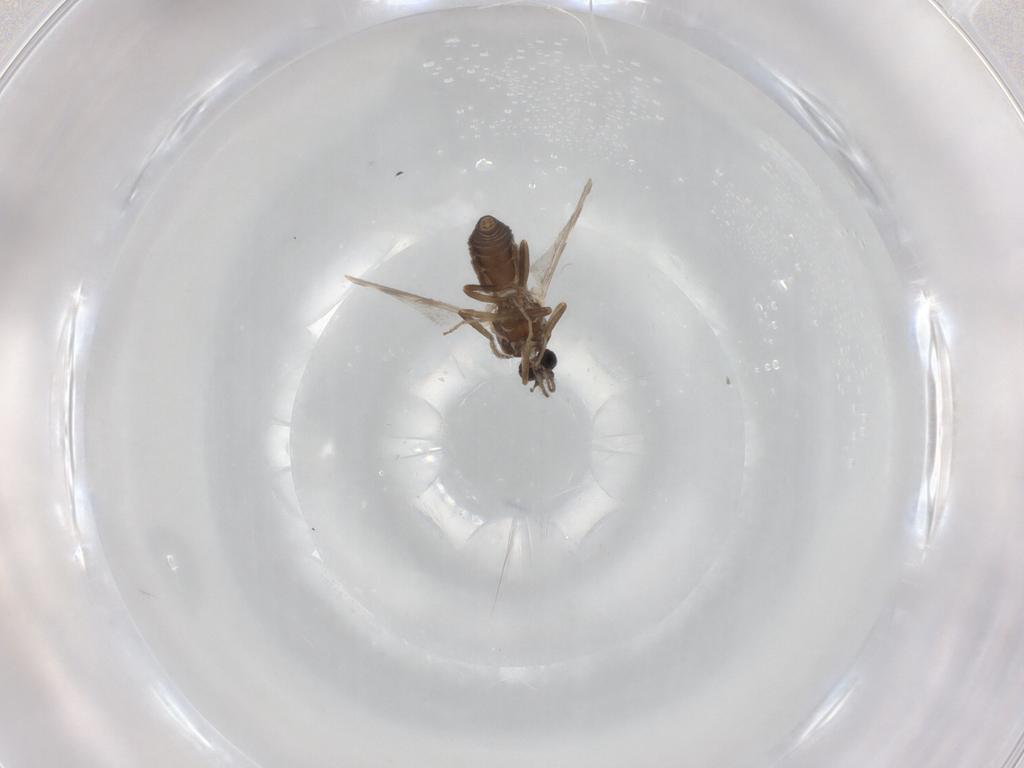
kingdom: Animalia
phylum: Arthropoda
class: Insecta
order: Diptera
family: Ceratopogonidae
